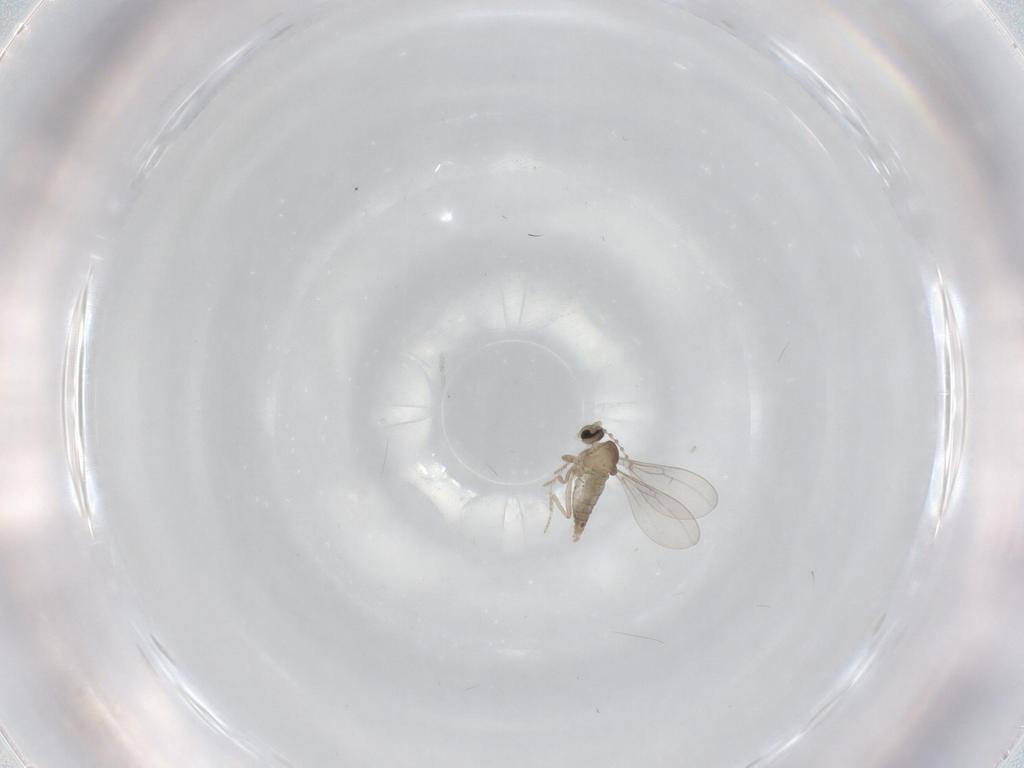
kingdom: Animalia
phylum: Arthropoda
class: Insecta
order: Diptera
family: Cecidomyiidae
